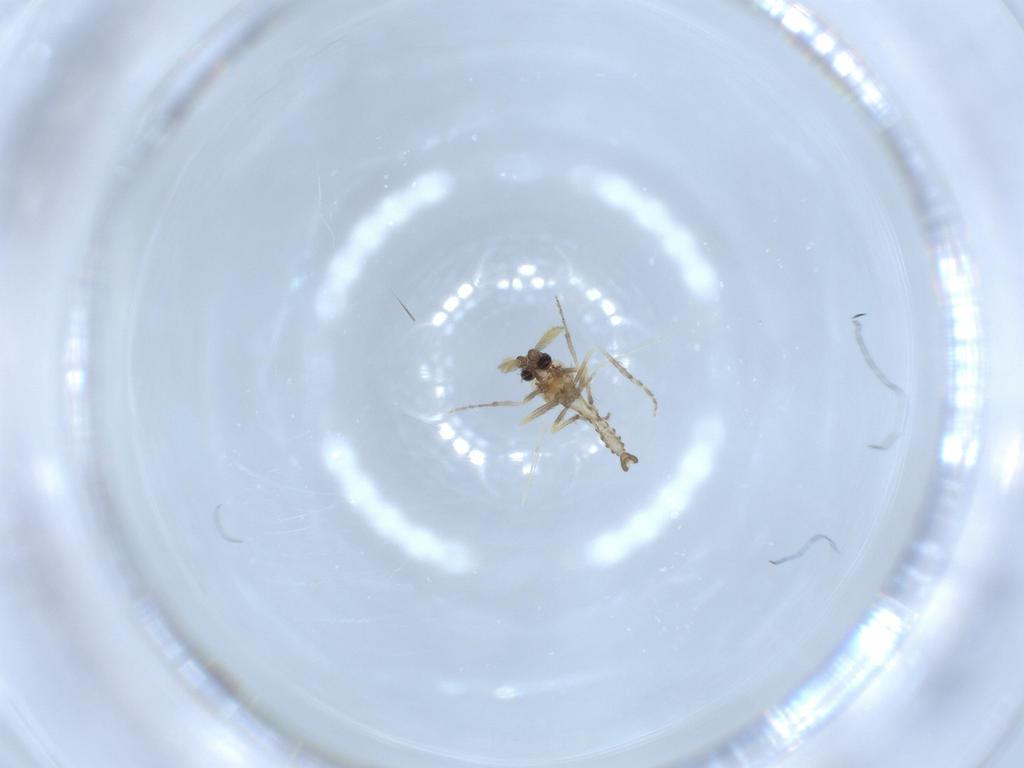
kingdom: Animalia
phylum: Arthropoda
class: Insecta
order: Diptera
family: Ceratopogonidae
